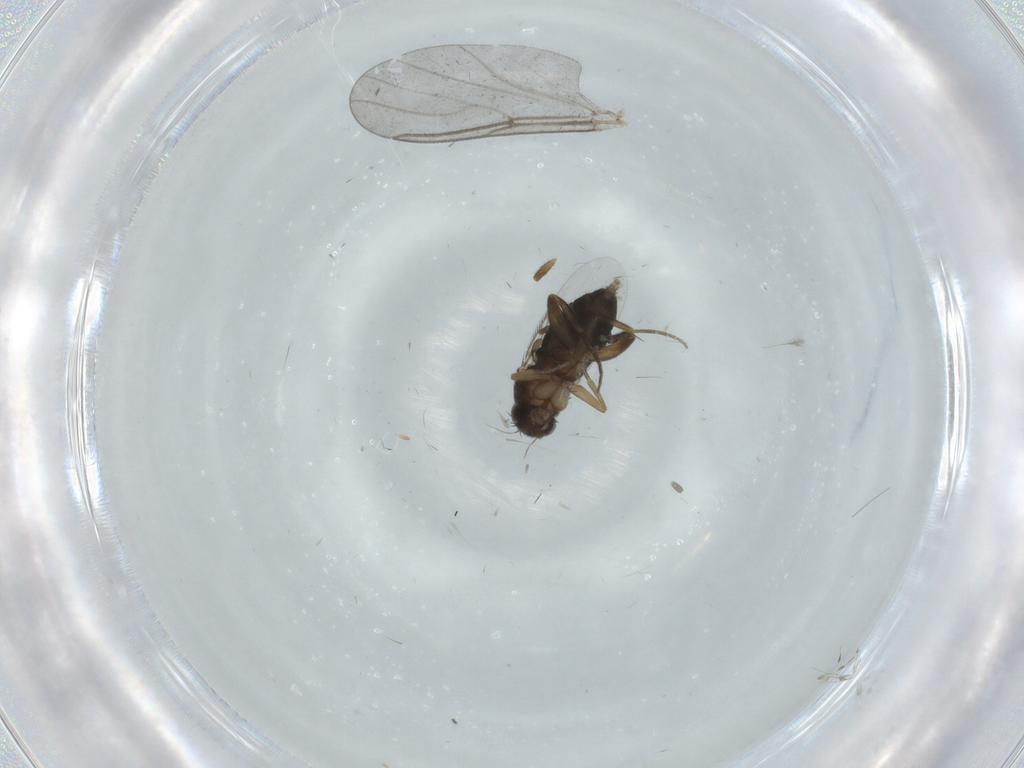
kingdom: Animalia
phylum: Arthropoda
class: Insecta
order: Diptera
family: Phoridae
